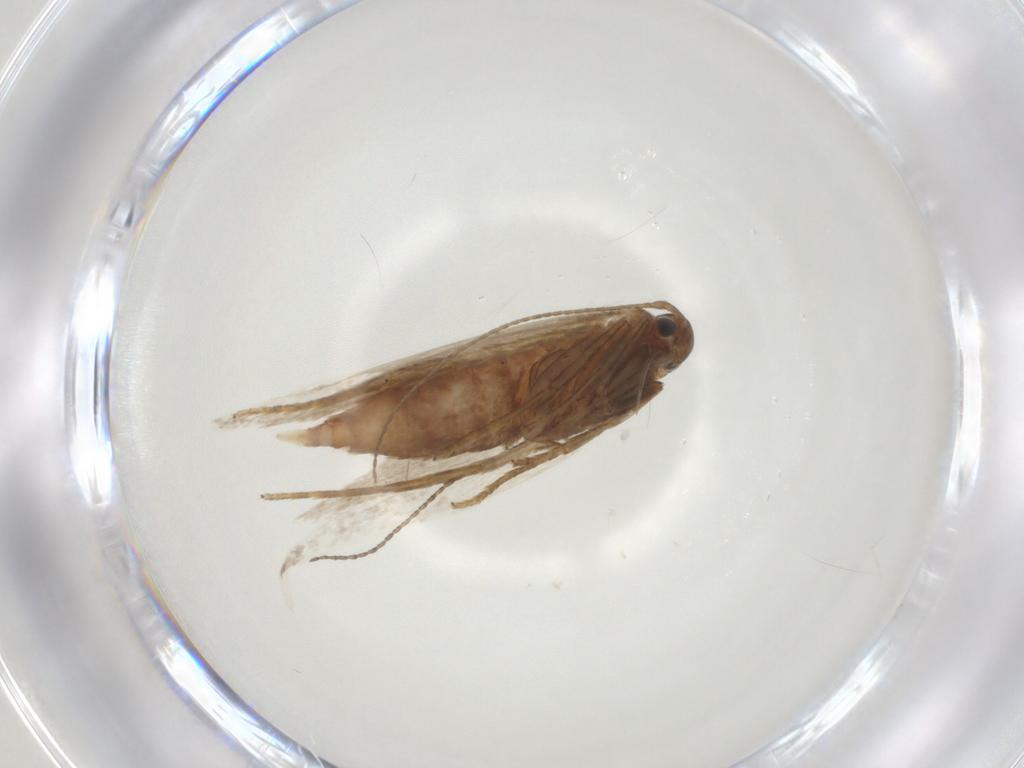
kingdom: Animalia
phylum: Arthropoda
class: Insecta
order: Lepidoptera
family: Erebidae
